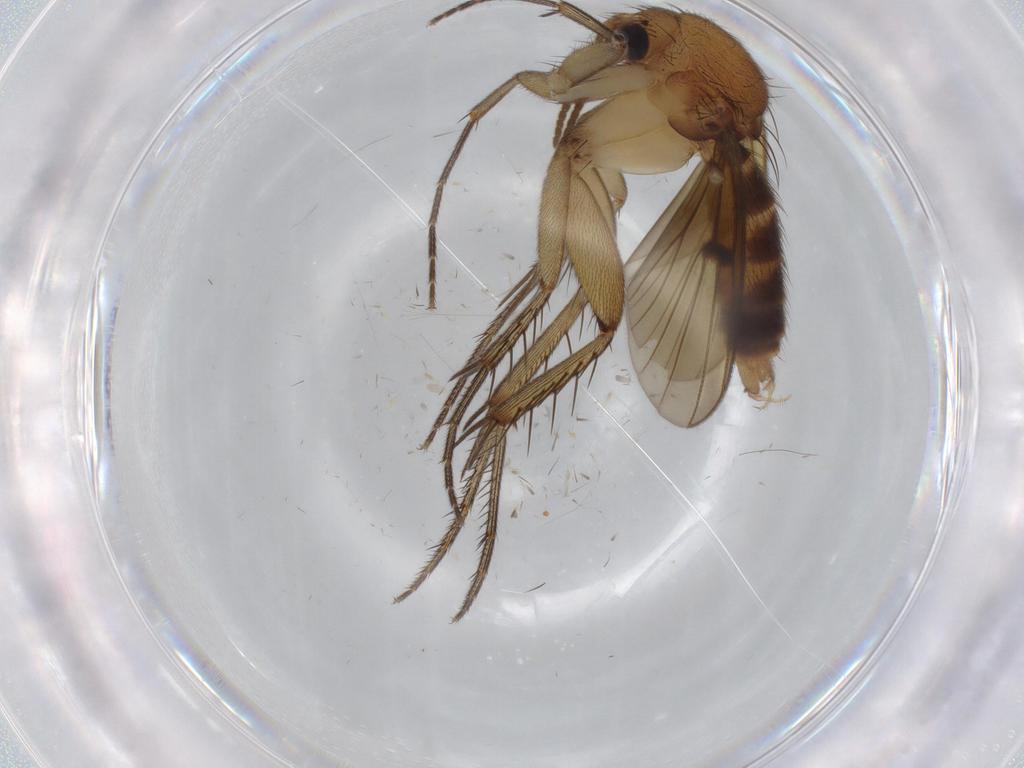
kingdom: Animalia
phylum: Arthropoda
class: Insecta
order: Diptera
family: Mycetophilidae
